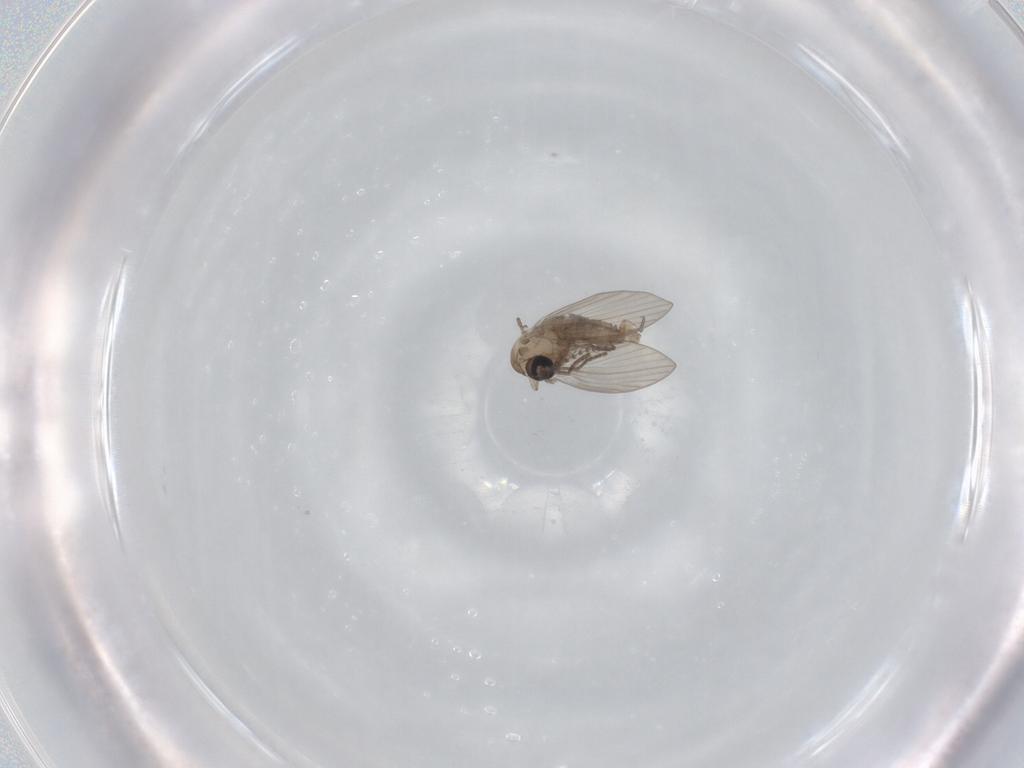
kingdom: Animalia
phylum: Arthropoda
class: Insecta
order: Diptera
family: Psychodidae
